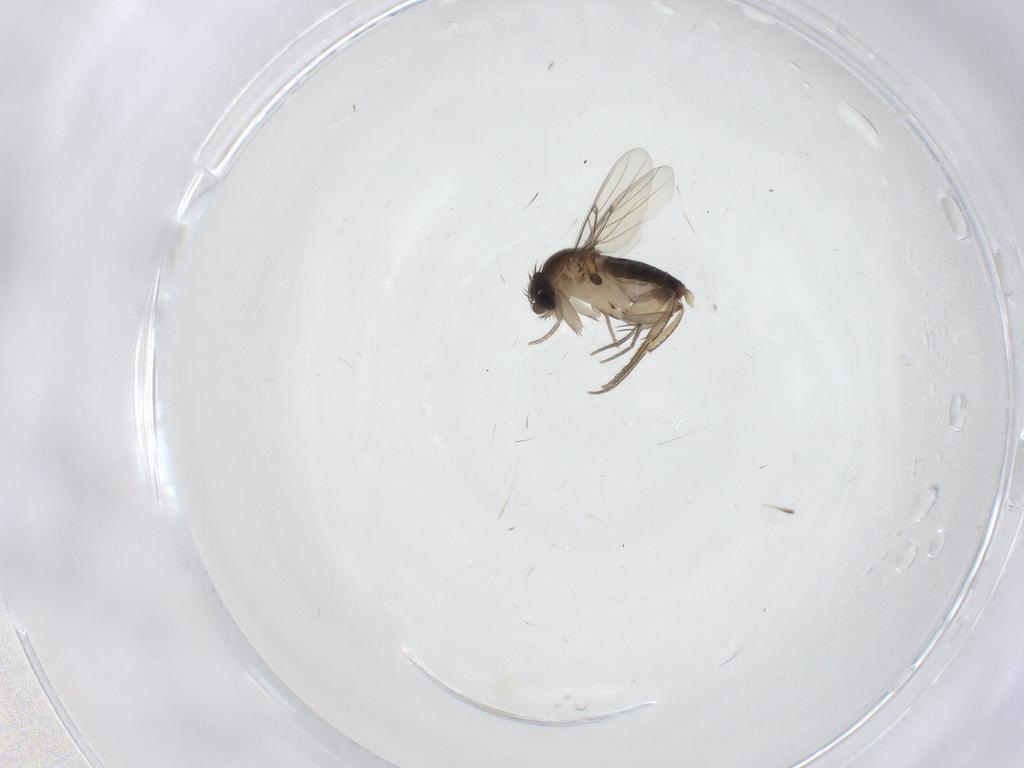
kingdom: Animalia
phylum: Arthropoda
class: Insecta
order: Diptera
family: Phoridae
